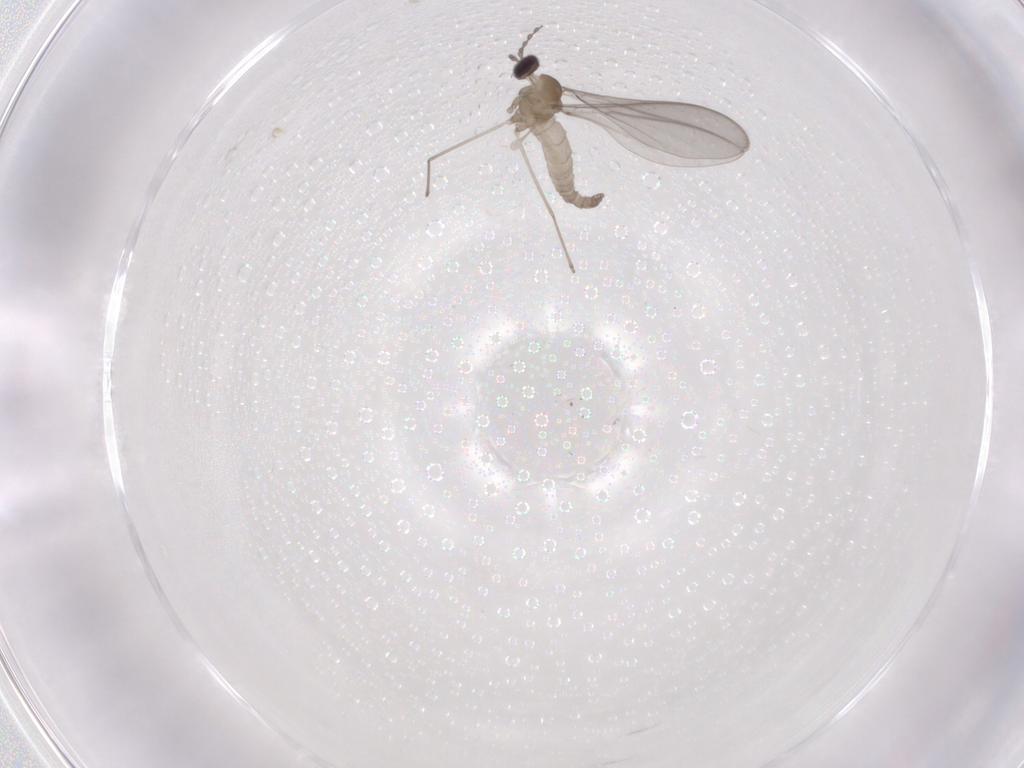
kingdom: Animalia
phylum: Arthropoda
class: Insecta
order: Diptera
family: Cecidomyiidae
